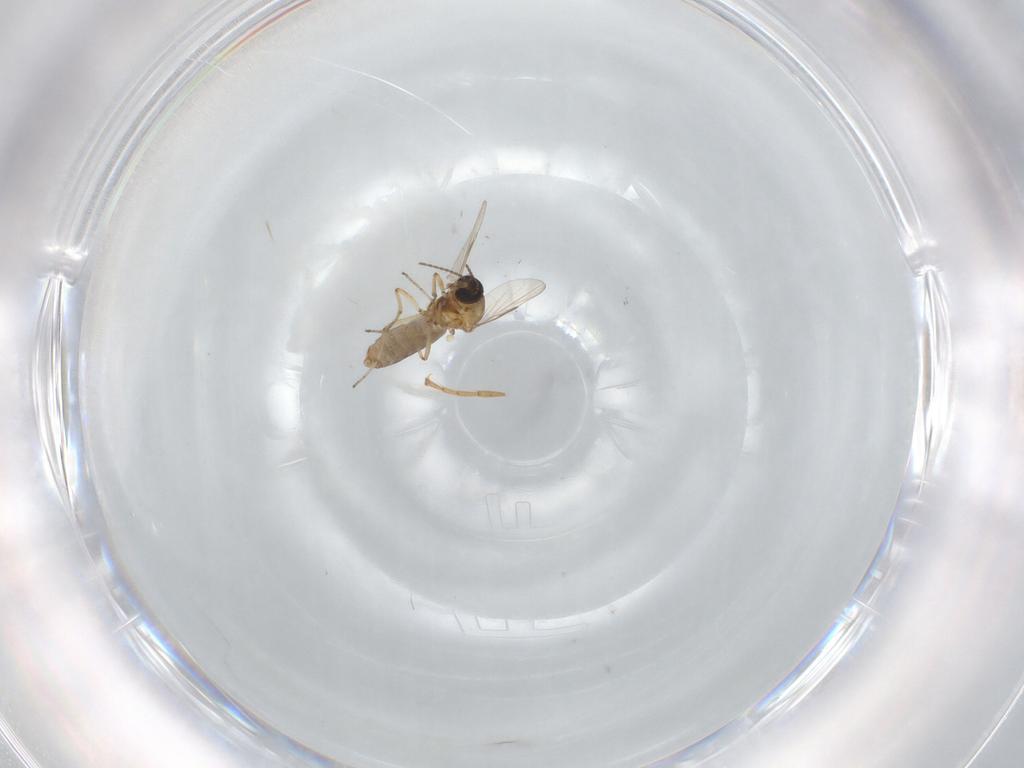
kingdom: Animalia
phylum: Arthropoda
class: Insecta
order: Diptera
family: Ceratopogonidae
